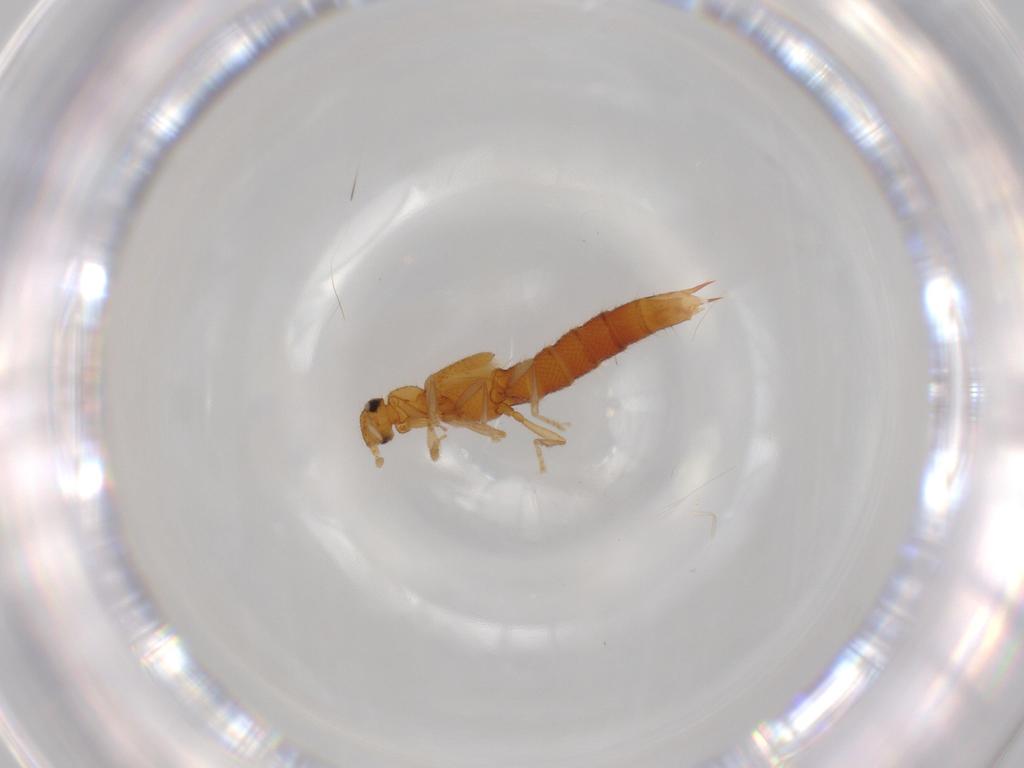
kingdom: Animalia
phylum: Arthropoda
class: Insecta
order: Coleoptera
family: Staphylinidae
